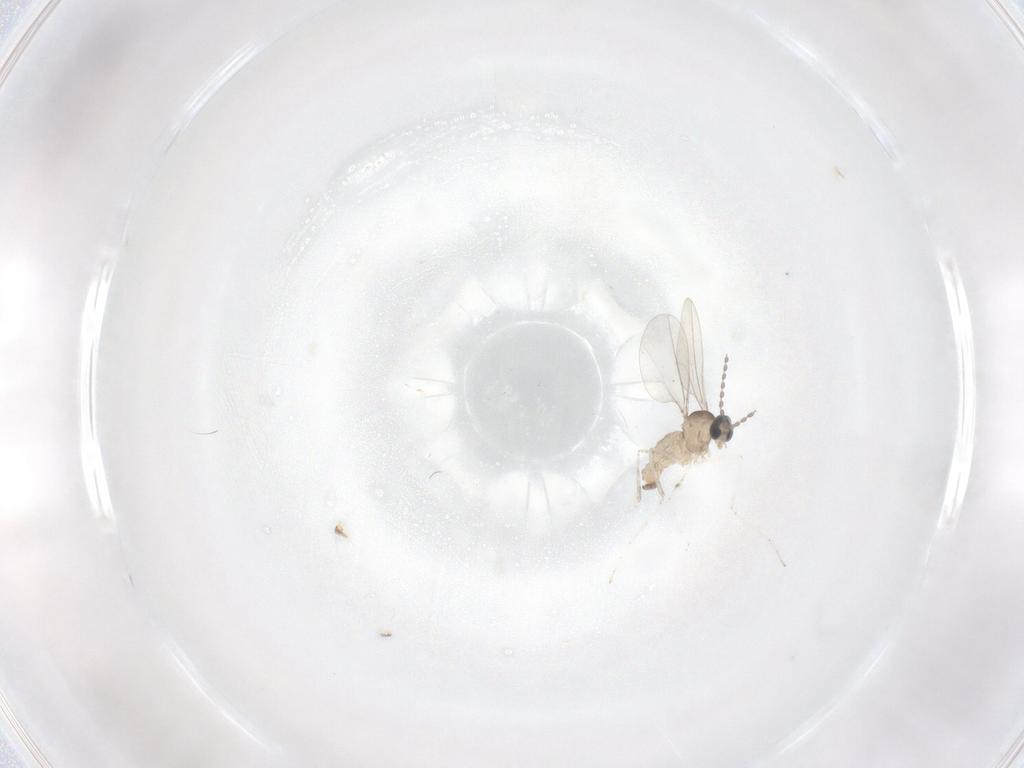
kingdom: Animalia
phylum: Arthropoda
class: Insecta
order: Diptera
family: Cecidomyiidae
